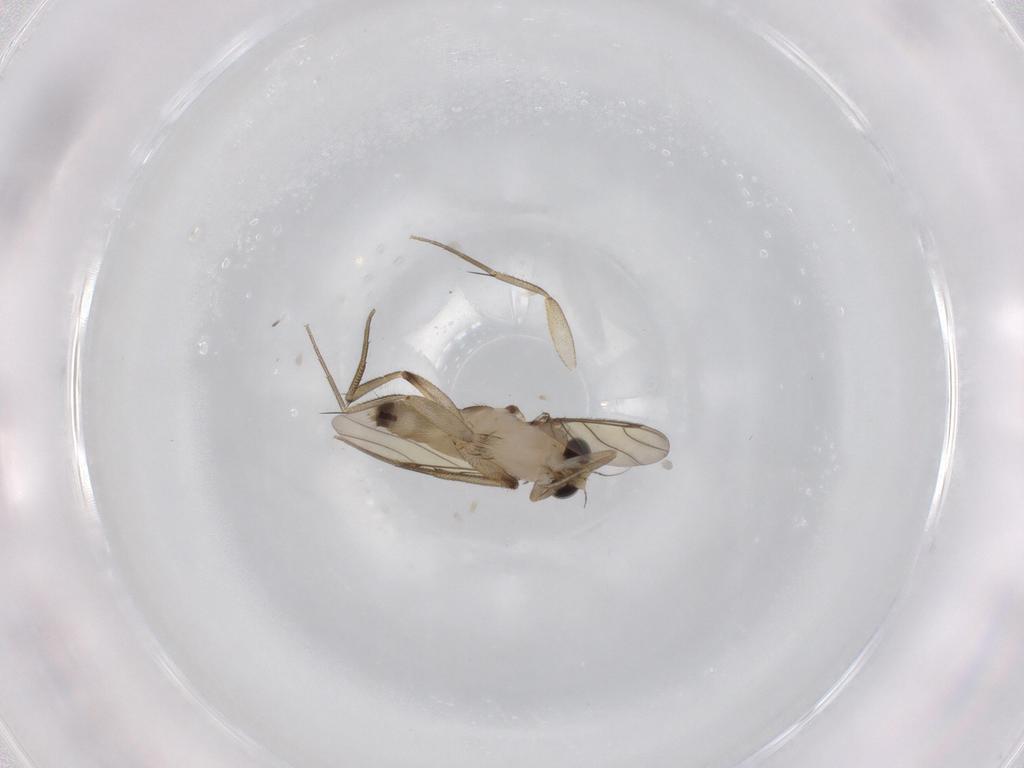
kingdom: Animalia
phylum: Arthropoda
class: Insecta
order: Diptera
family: Phoridae
